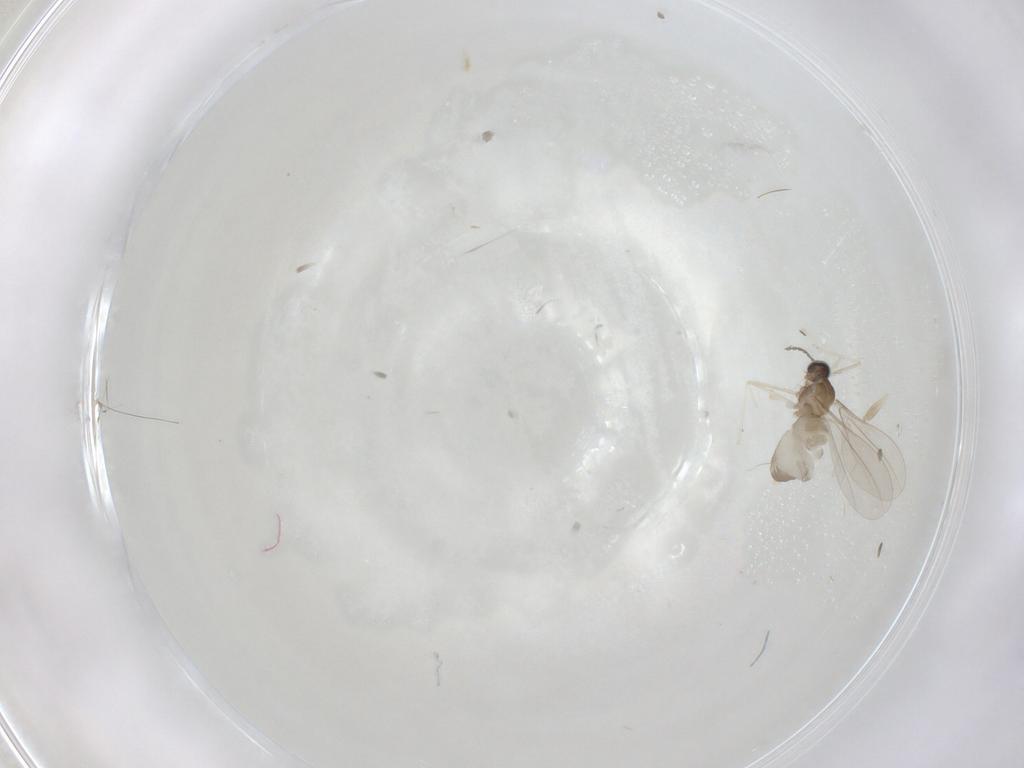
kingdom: Animalia
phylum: Arthropoda
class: Insecta
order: Diptera
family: Cecidomyiidae
